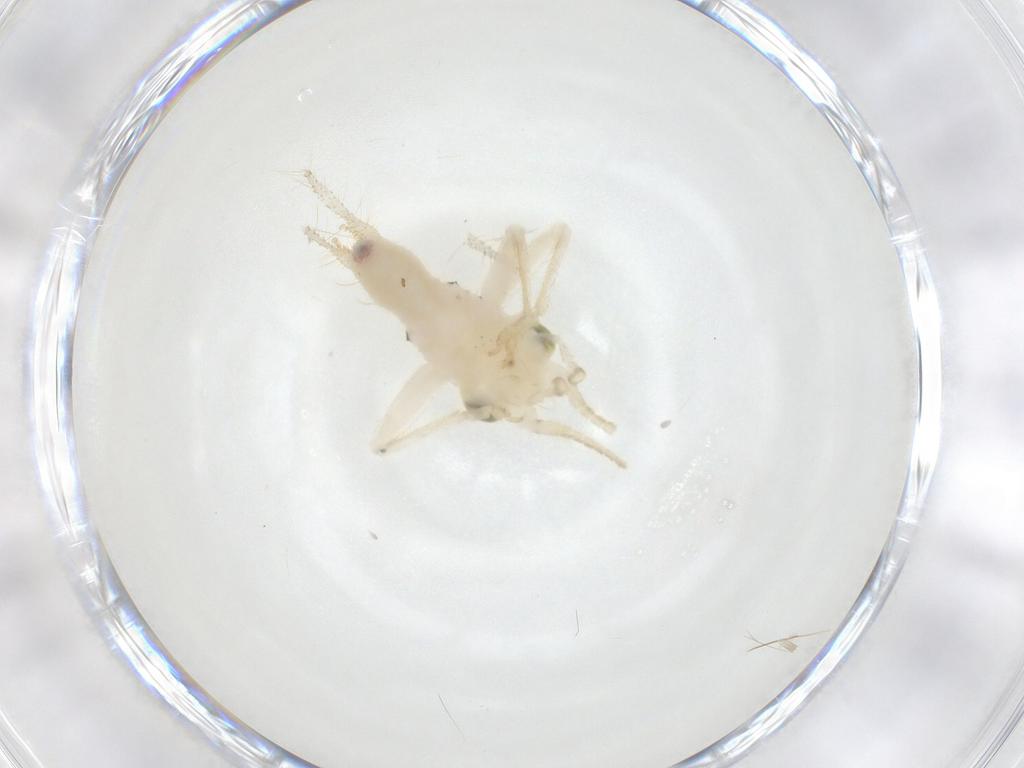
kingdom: Animalia
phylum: Arthropoda
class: Insecta
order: Orthoptera
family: Trigonidiidae
